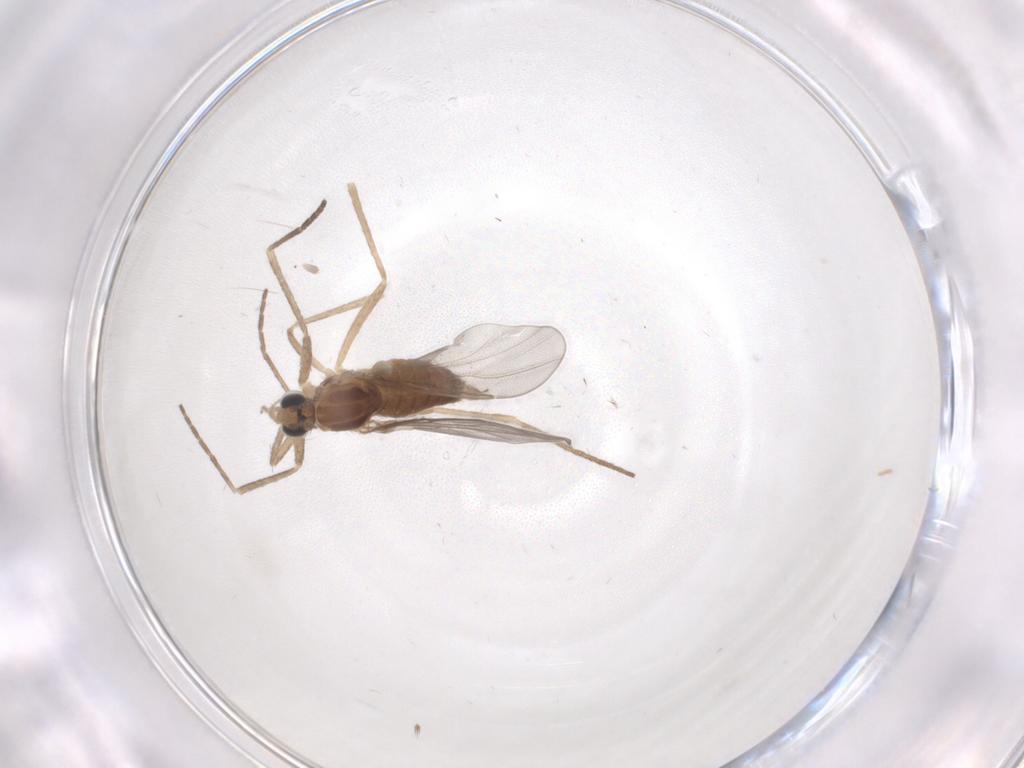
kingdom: Animalia
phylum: Arthropoda
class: Insecta
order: Diptera
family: Cecidomyiidae
